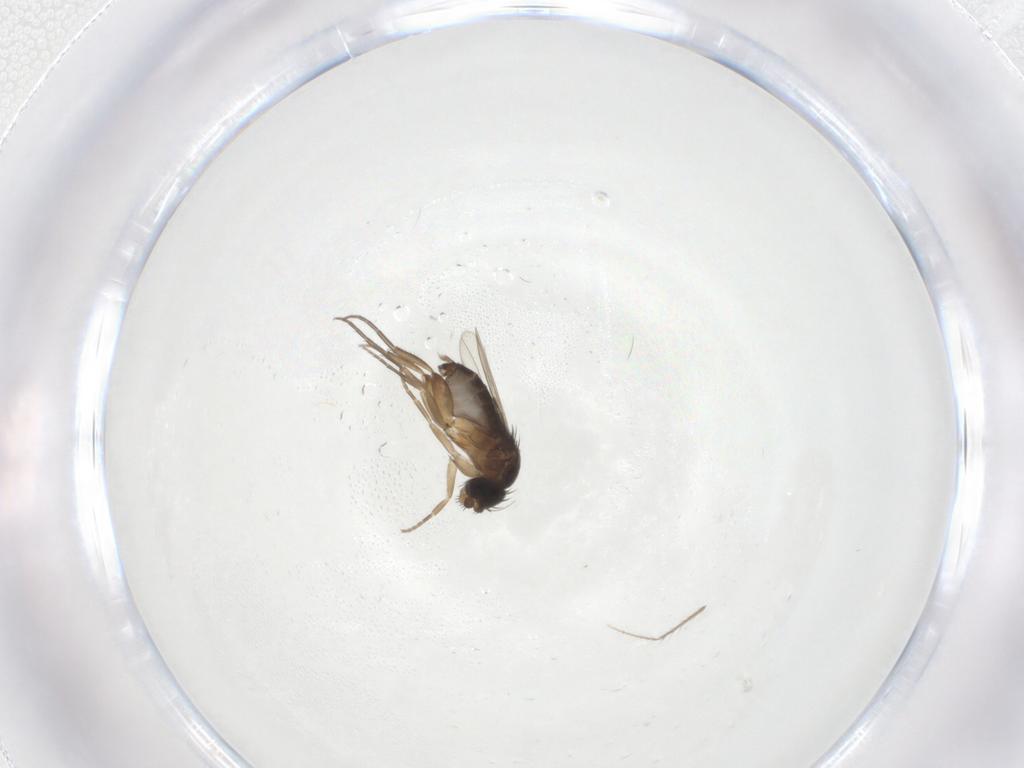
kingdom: Animalia
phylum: Arthropoda
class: Insecta
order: Diptera
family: Phoridae
